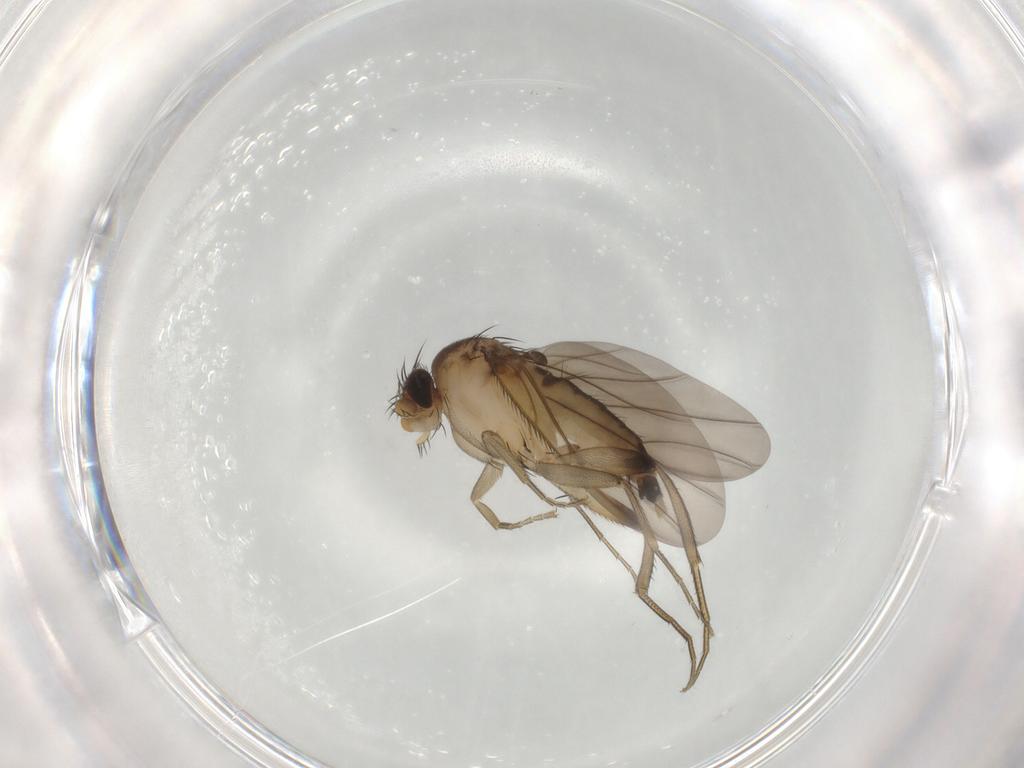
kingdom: Animalia
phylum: Arthropoda
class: Insecta
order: Diptera
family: Phoridae
